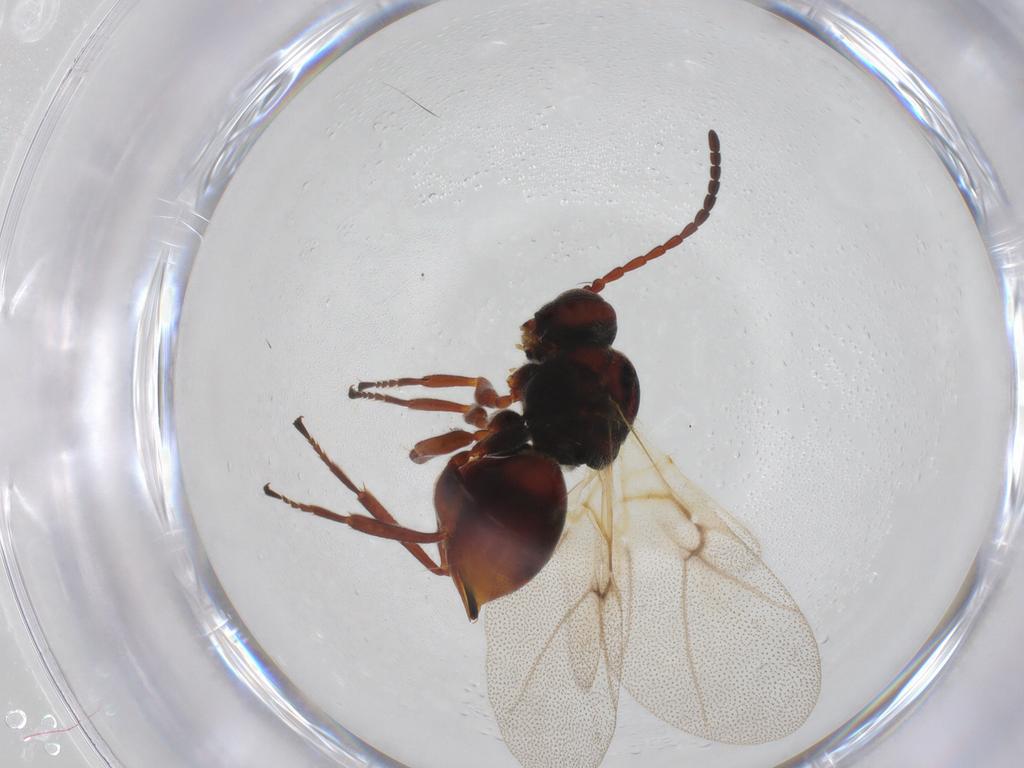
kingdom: Animalia
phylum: Arthropoda
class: Insecta
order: Hymenoptera
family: Cynipidae
